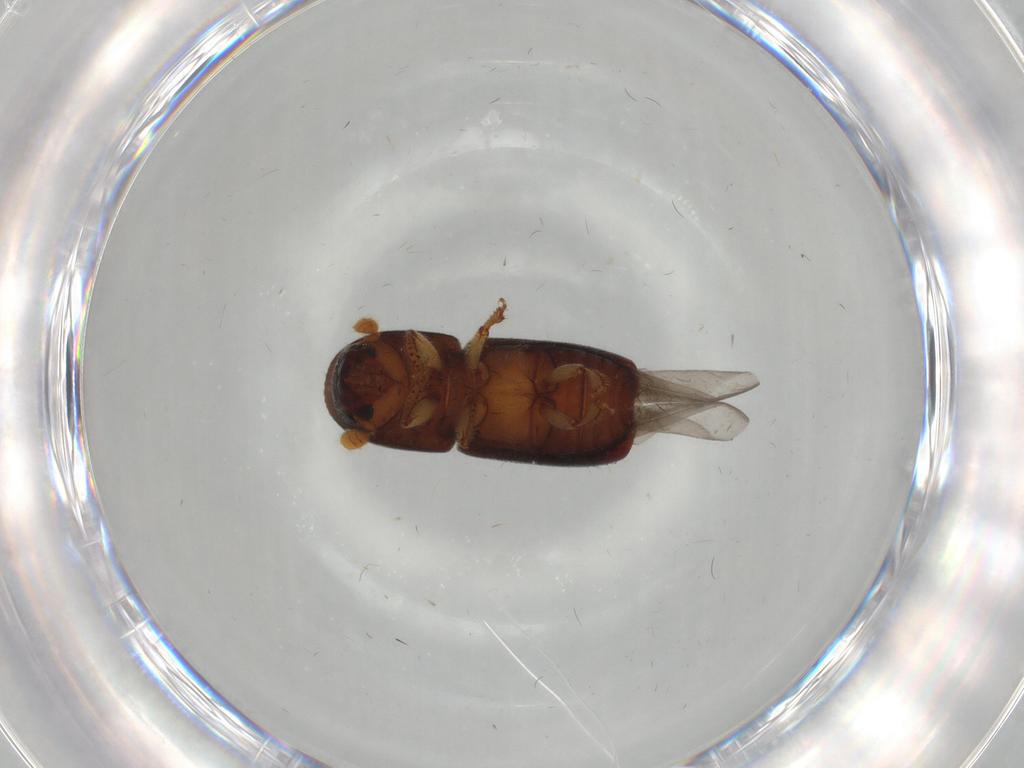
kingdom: Animalia
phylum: Arthropoda
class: Insecta
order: Coleoptera
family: Curculionidae
